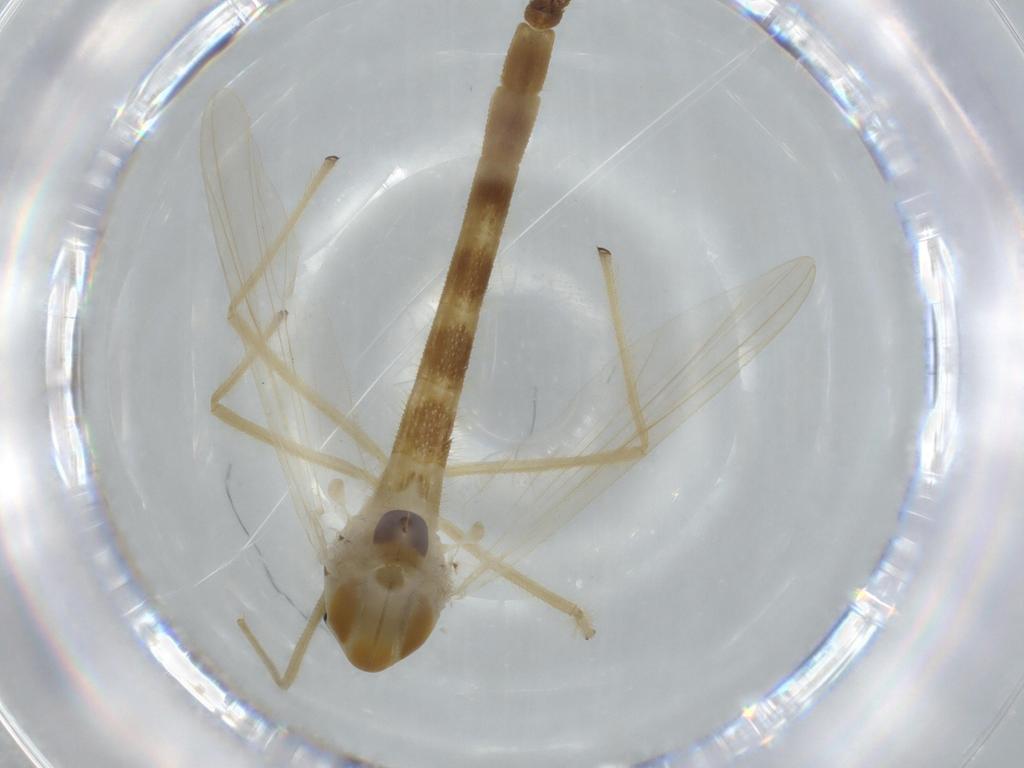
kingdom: Animalia
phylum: Arthropoda
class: Insecta
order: Diptera
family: Chironomidae
